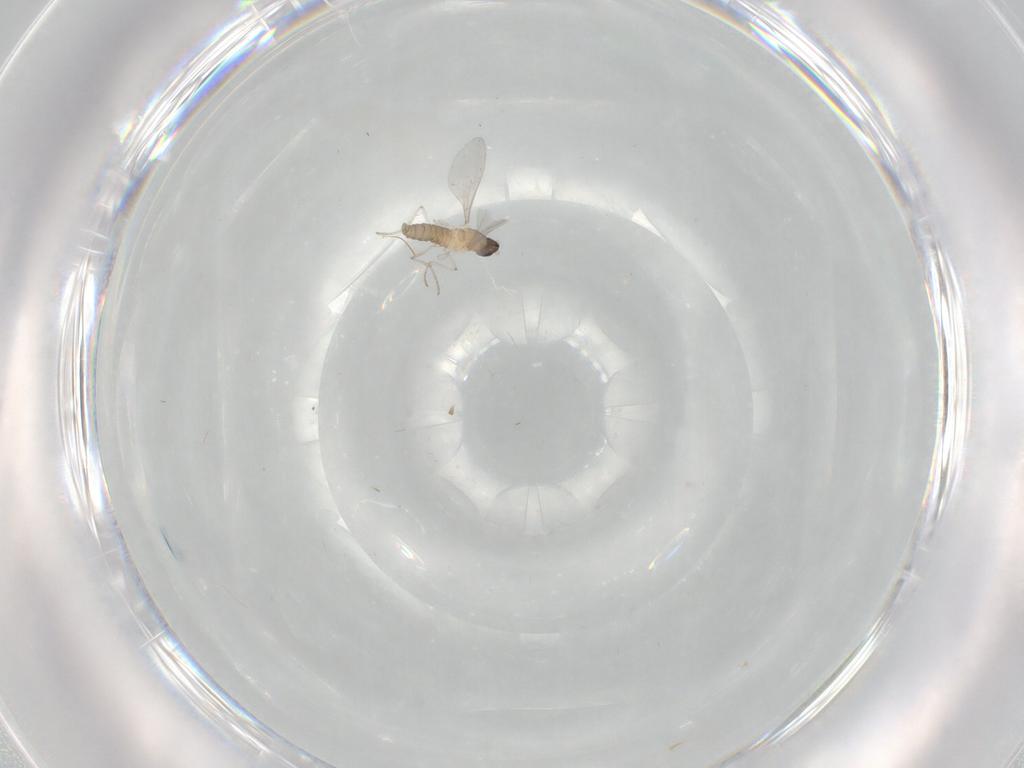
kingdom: Animalia
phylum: Arthropoda
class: Insecta
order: Diptera
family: Cecidomyiidae
